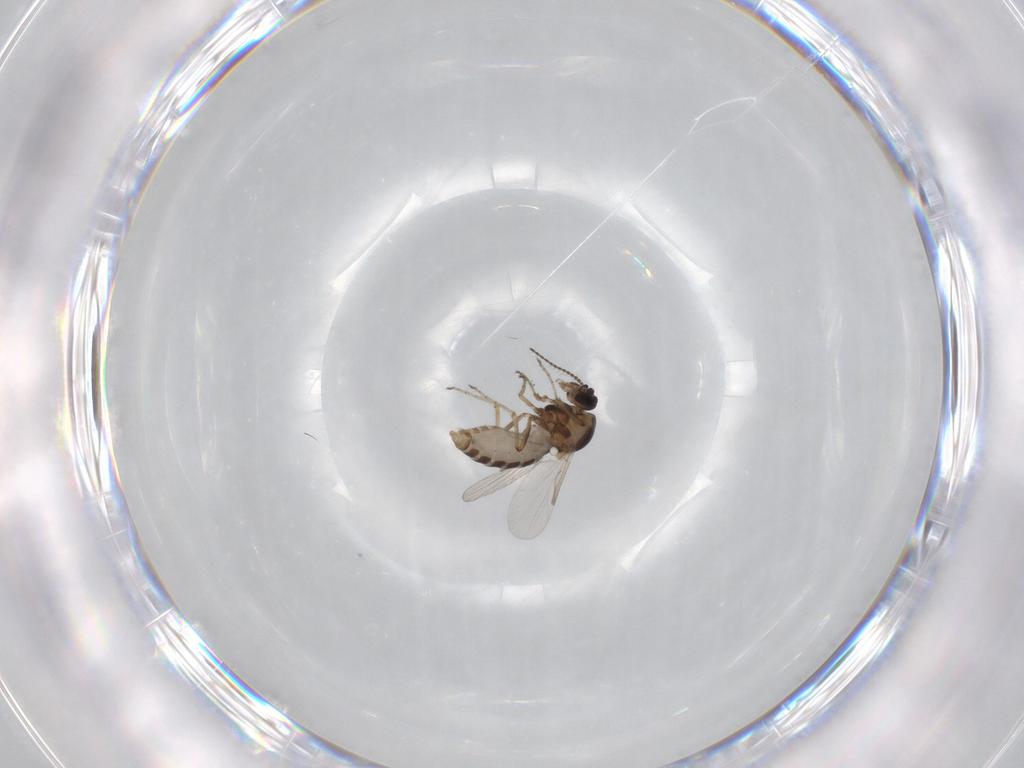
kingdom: Animalia
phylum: Arthropoda
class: Insecta
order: Diptera
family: Ceratopogonidae
